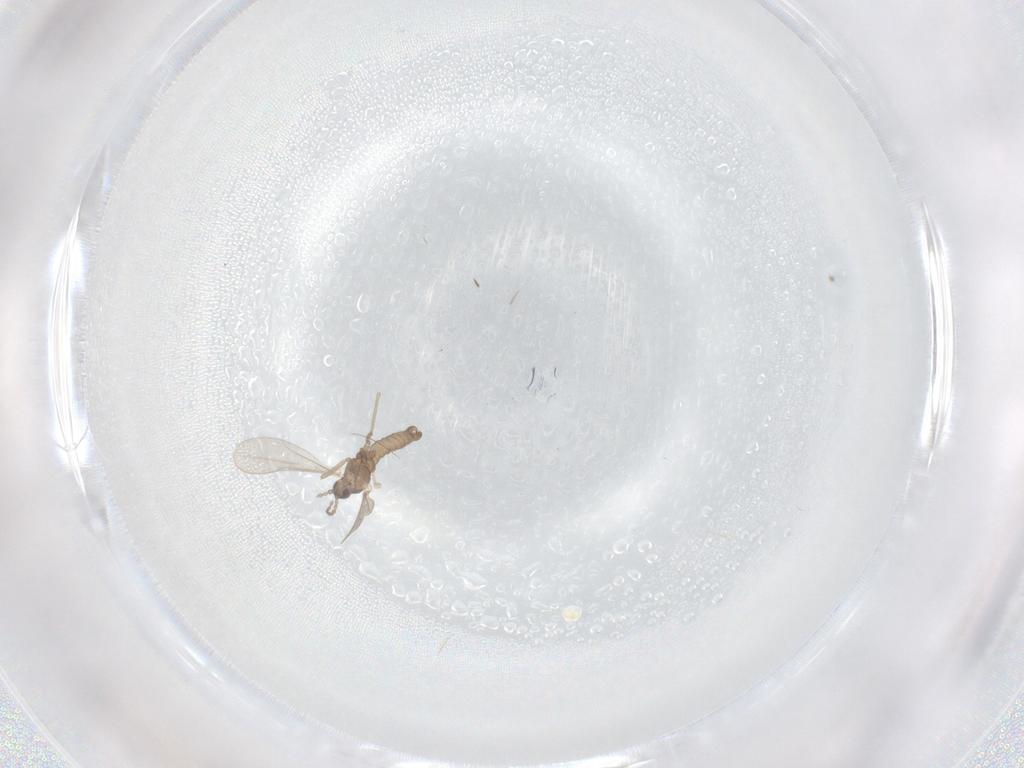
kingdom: Animalia
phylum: Arthropoda
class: Insecta
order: Diptera
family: Cecidomyiidae
